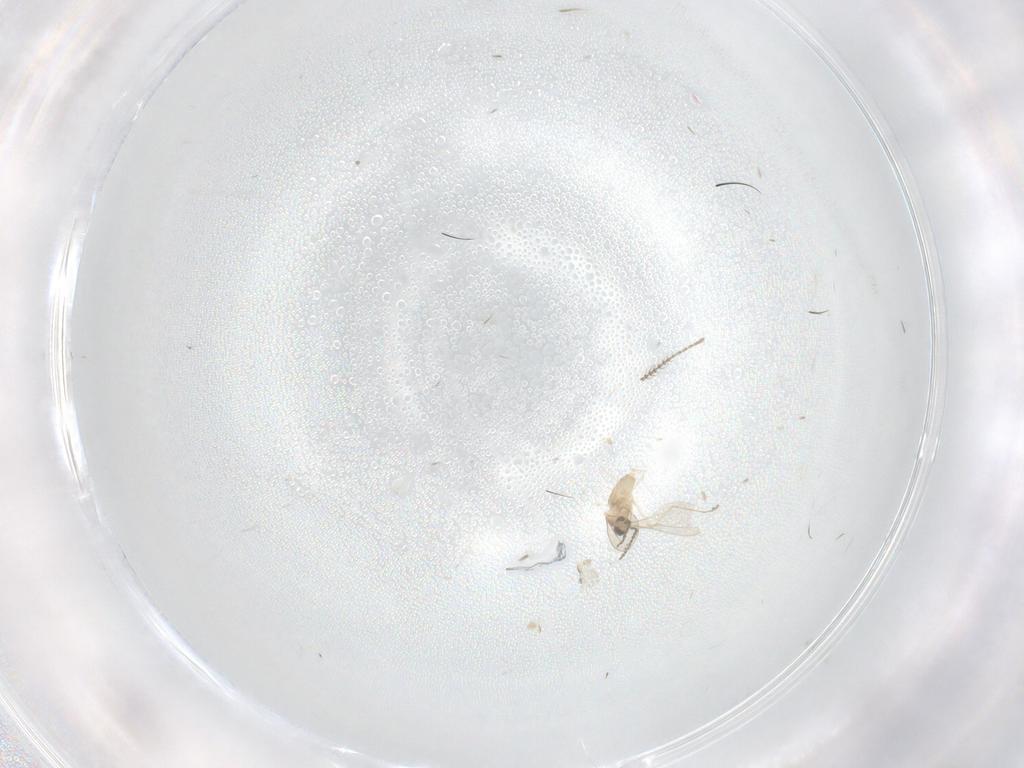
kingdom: Animalia
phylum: Arthropoda
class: Insecta
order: Diptera
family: Ceratopogonidae
